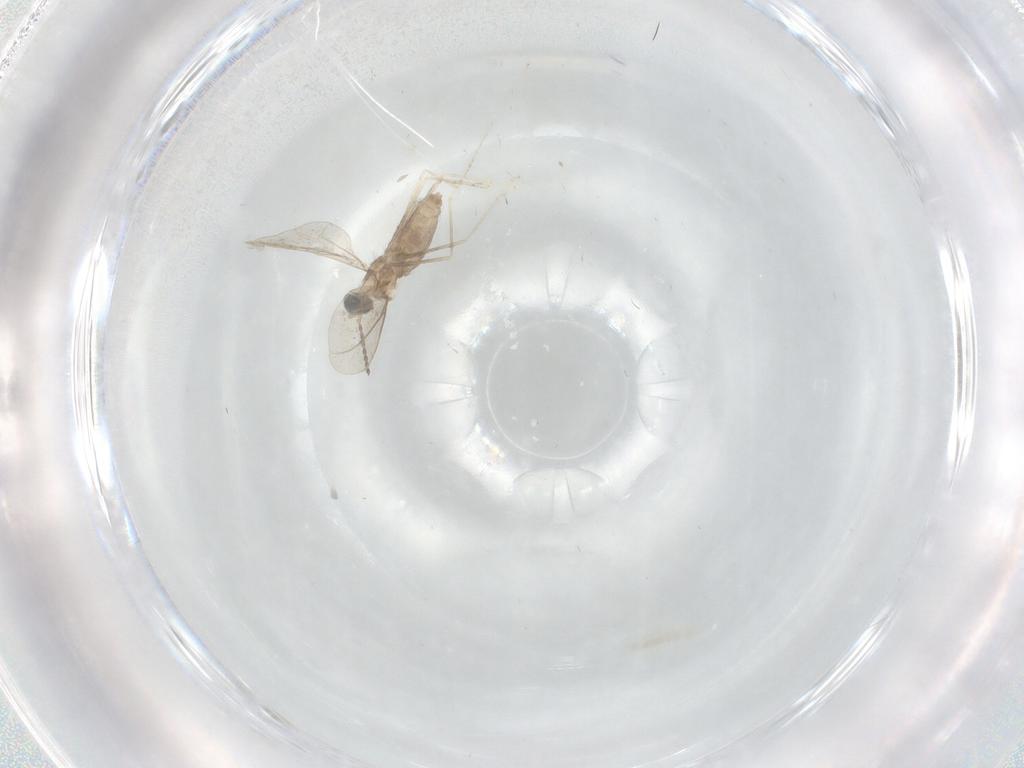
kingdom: Animalia
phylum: Arthropoda
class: Insecta
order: Diptera
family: Cecidomyiidae
